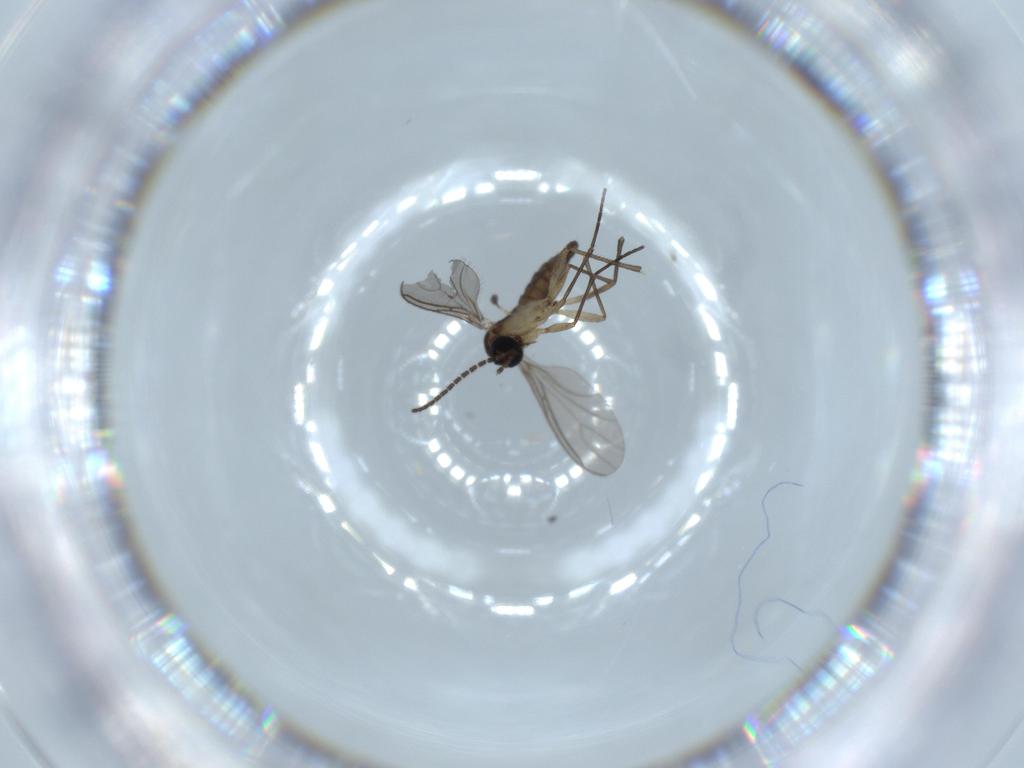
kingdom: Animalia
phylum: Arthropoda
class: Insecta
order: Diptera
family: Sciaridae
